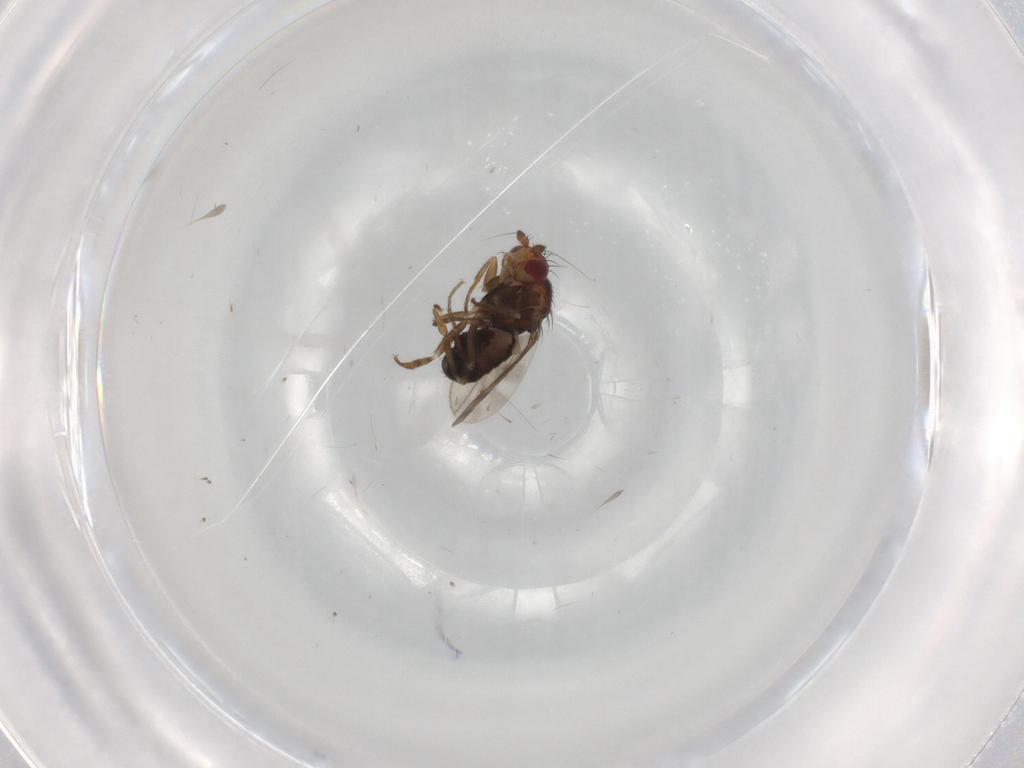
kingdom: Animalia
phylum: Arthropoda
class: Insecta
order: Diptera
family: Sphaeroceridae
